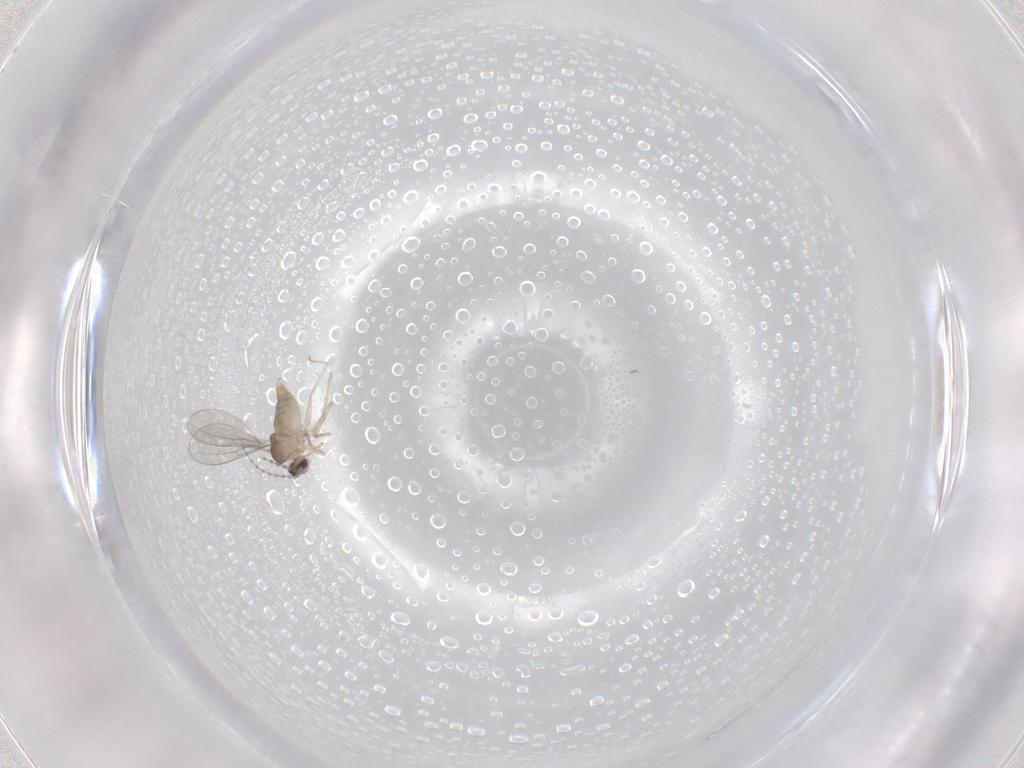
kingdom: Animalia
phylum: Arthropoda
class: Insecta
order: Diptera
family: Cecidomyiidae
